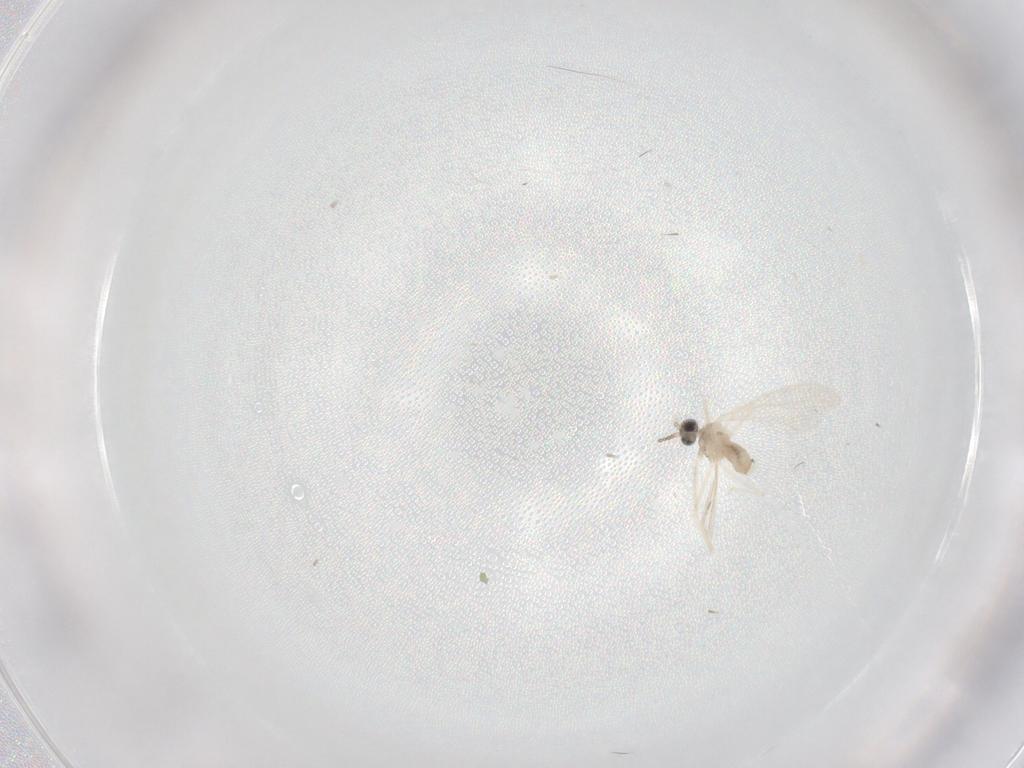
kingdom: Animalia
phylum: Arthropoda
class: Insecta
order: Diptera
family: Cecidomyiidae
